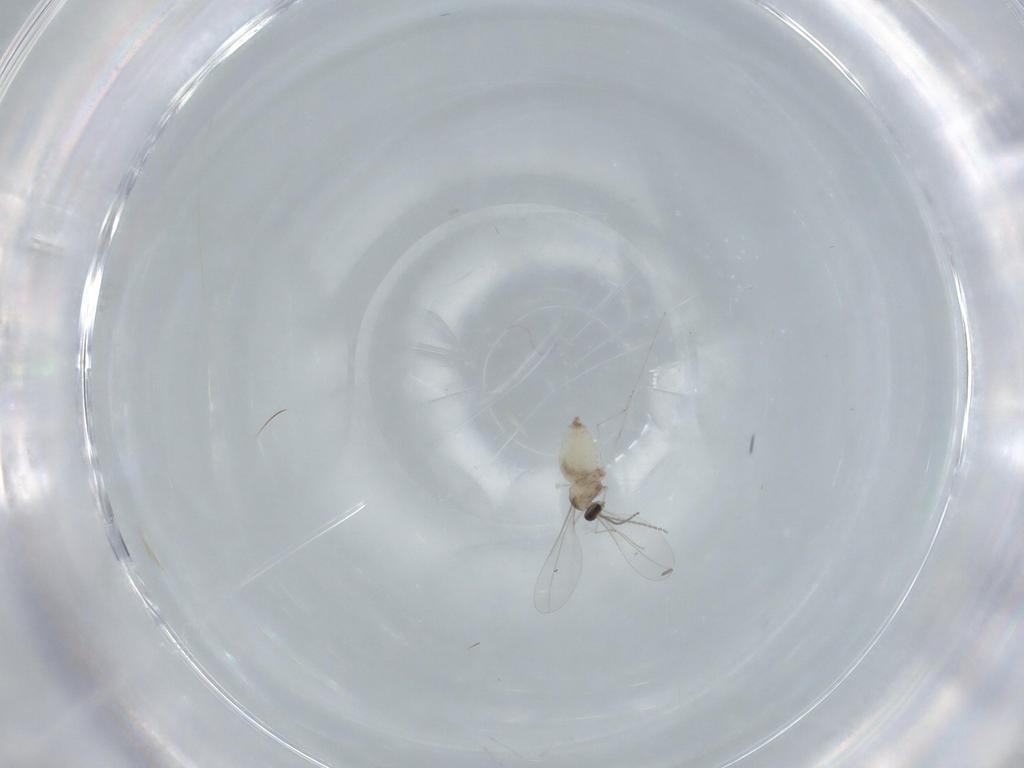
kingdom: Animalia
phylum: Arthropoda
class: Insecta
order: Diptera
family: Cecidomyiidae
